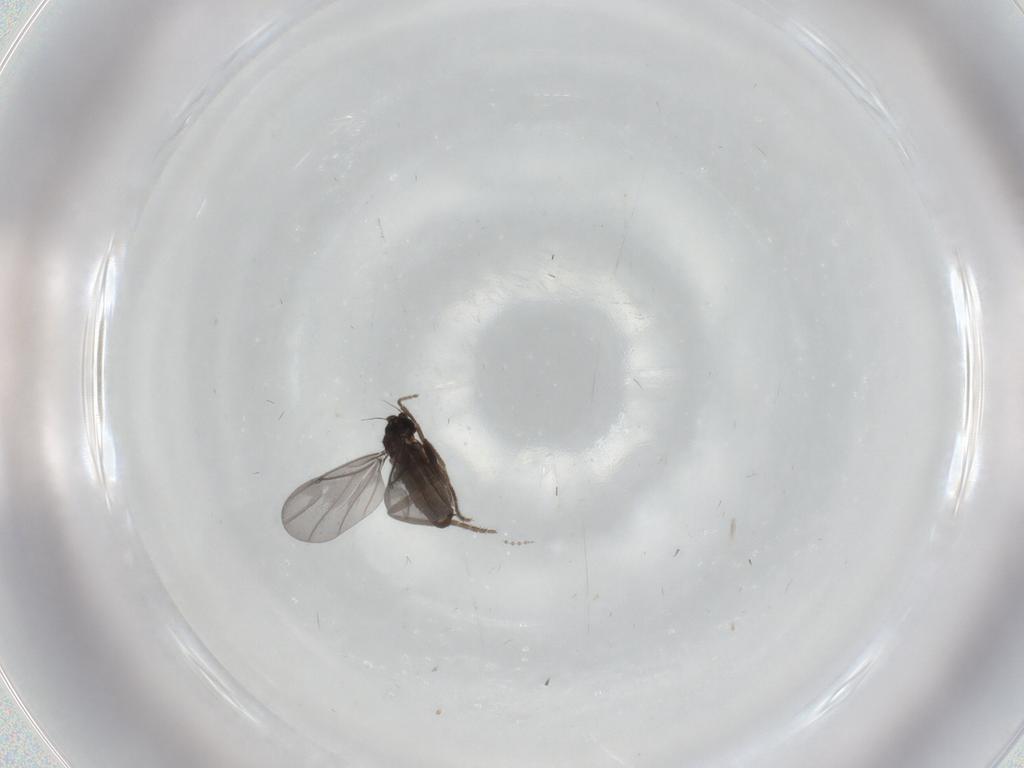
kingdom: Animalia
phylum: Arthropoda
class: Insecta
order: Diptera
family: Phoridae
